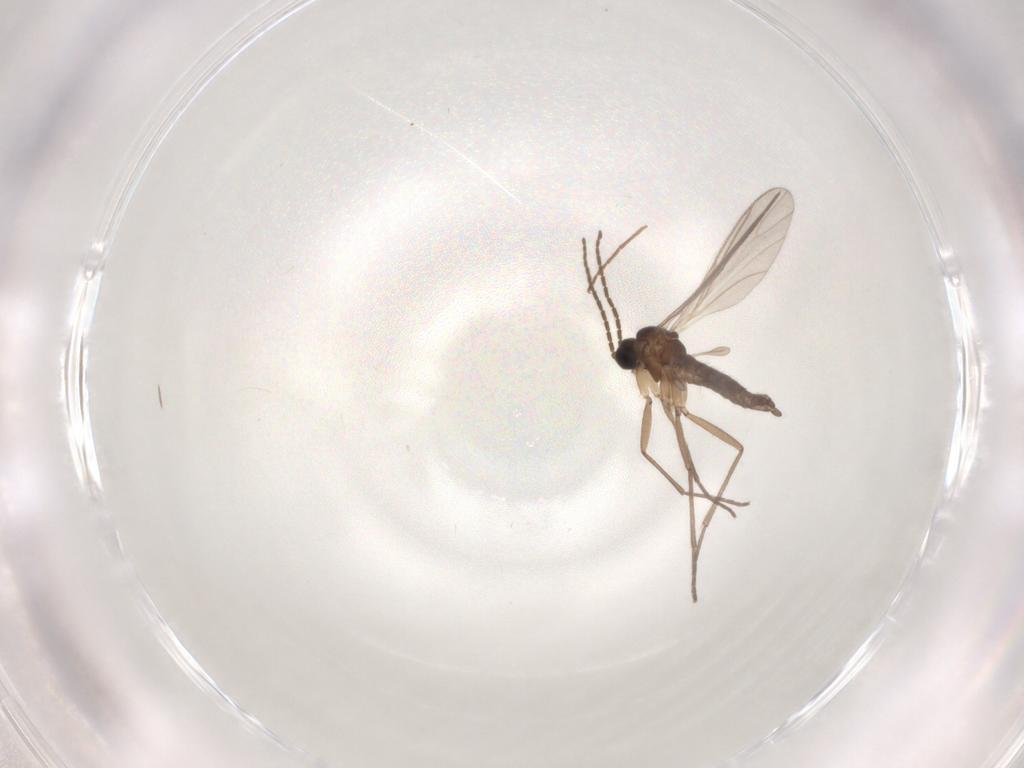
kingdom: Animalia
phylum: Arthropoda
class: Insecta
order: Diptera
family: Sciaridae
